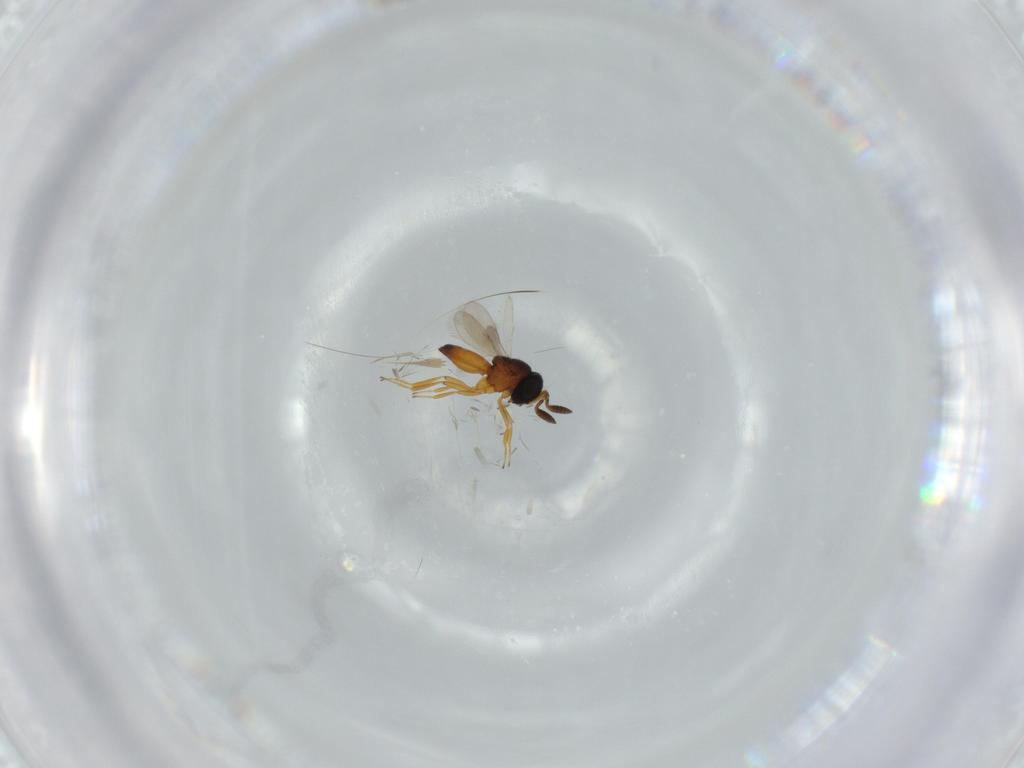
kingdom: Animalia
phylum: Arthropoda
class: Insecta
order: Hymenoptera
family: Scelionidae
